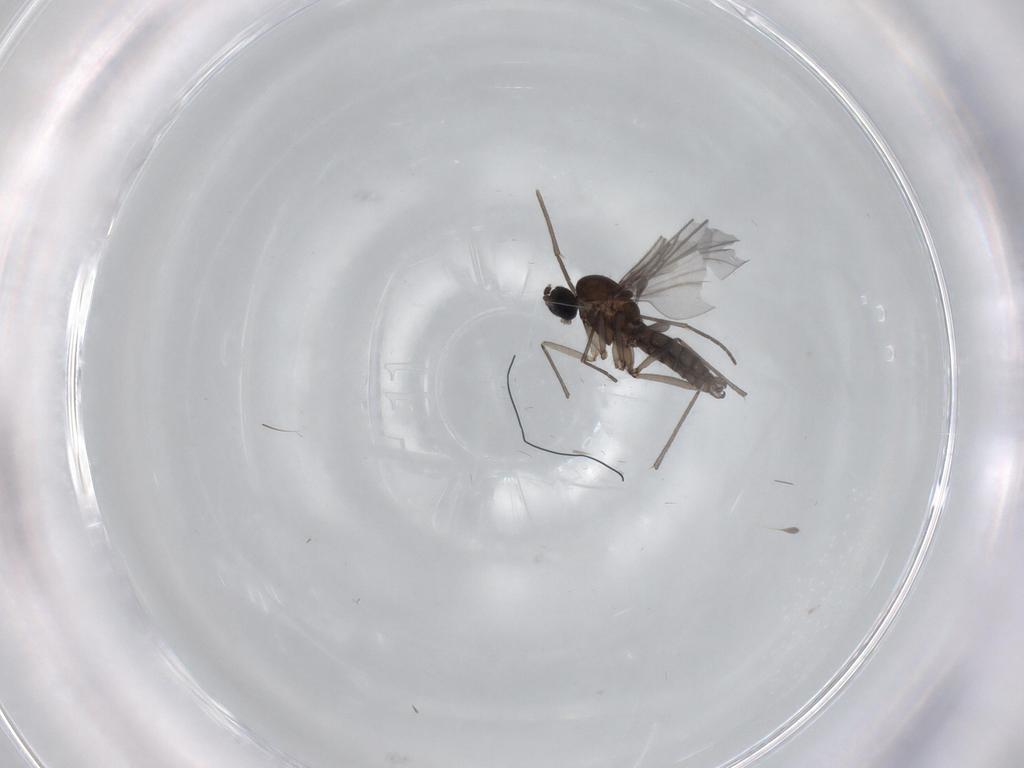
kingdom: Animalia
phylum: Arthropoda
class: Insecta
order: Diptera
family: Sciaridae
